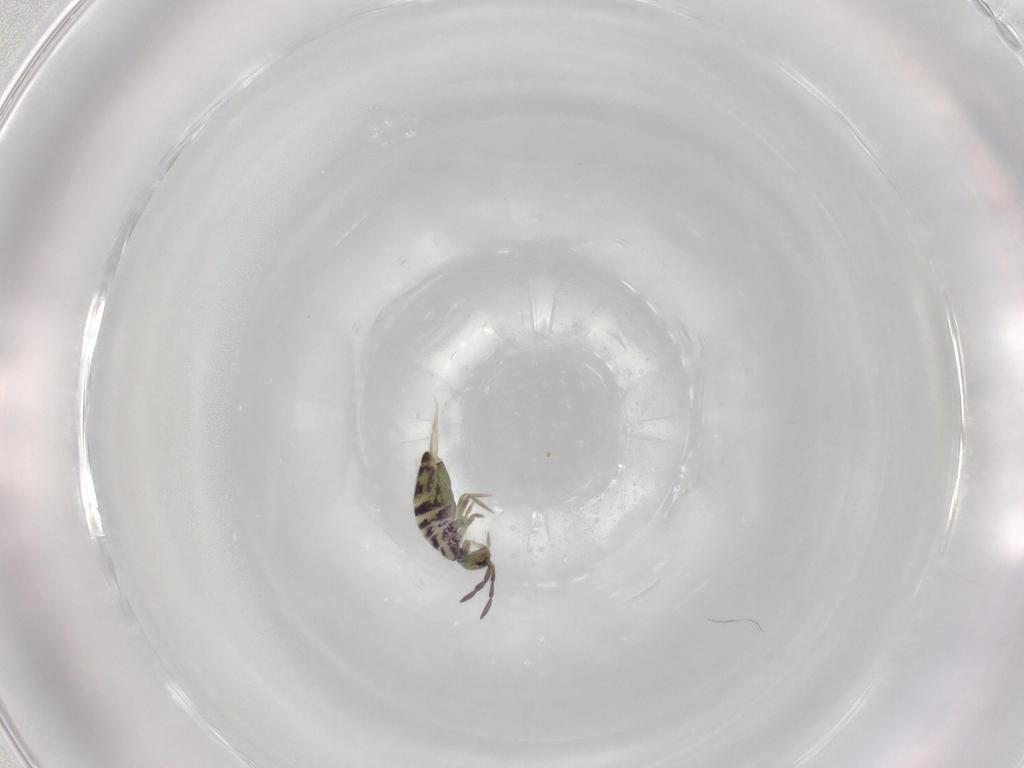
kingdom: Animalia
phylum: Arthropoda
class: Collembola
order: Entomobryomorpha
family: Entomobryidae
